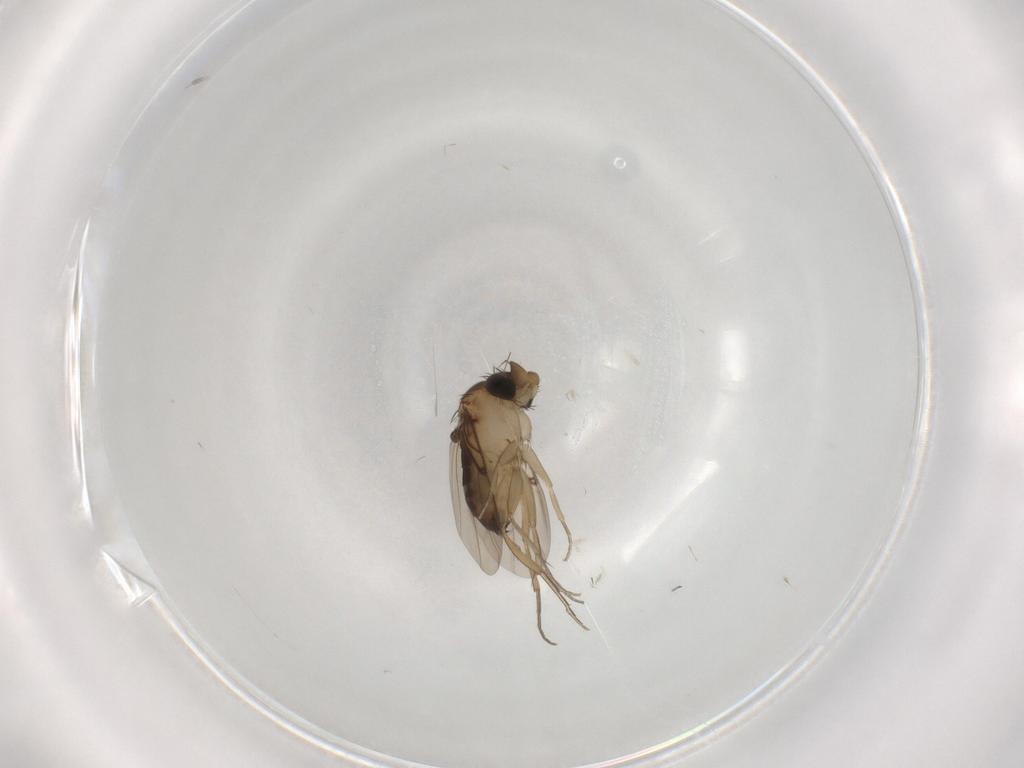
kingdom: Animalia
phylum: Arthropoda
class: Insecta
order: Diptera
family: Phoridae
